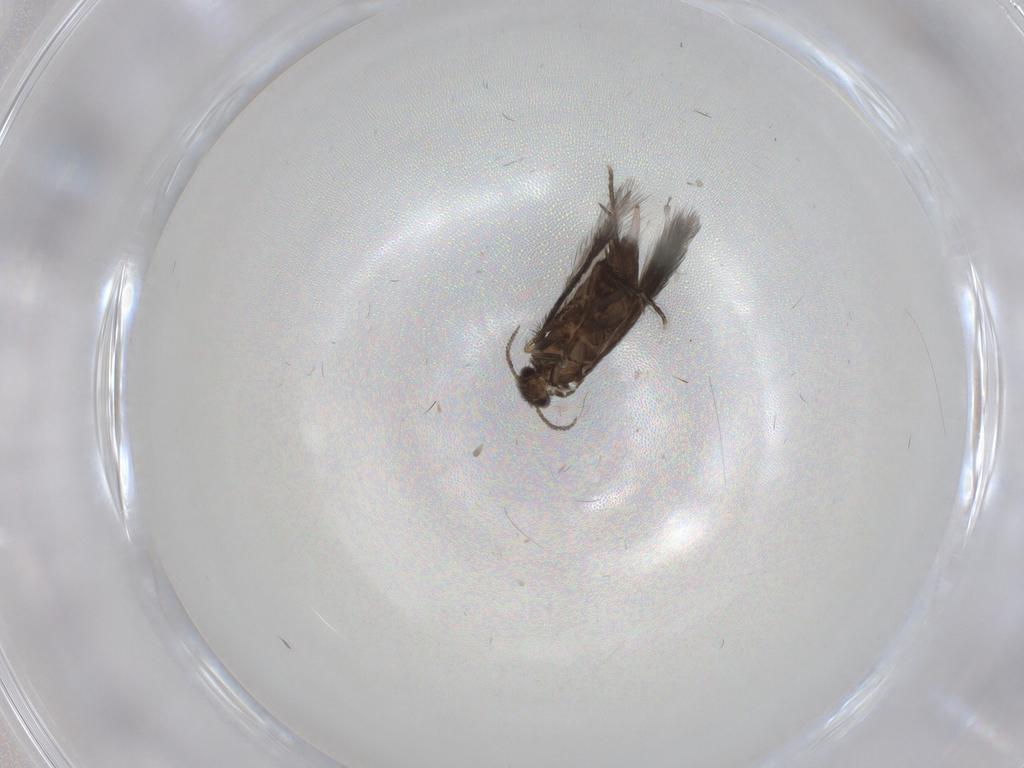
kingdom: Animalia
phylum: Arthropoda
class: Insecta
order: Trichoptera
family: Hydroptilidae
